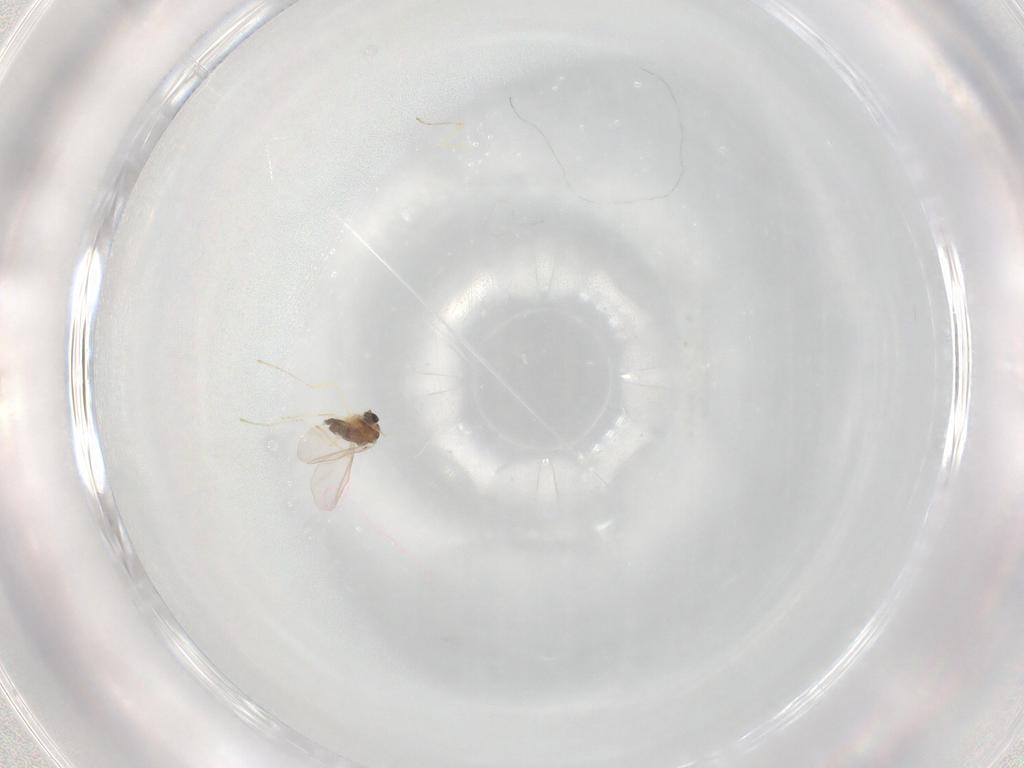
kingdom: Animalia
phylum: Arthropoda
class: Insecta
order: Diptera
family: Cecidomyiidae
